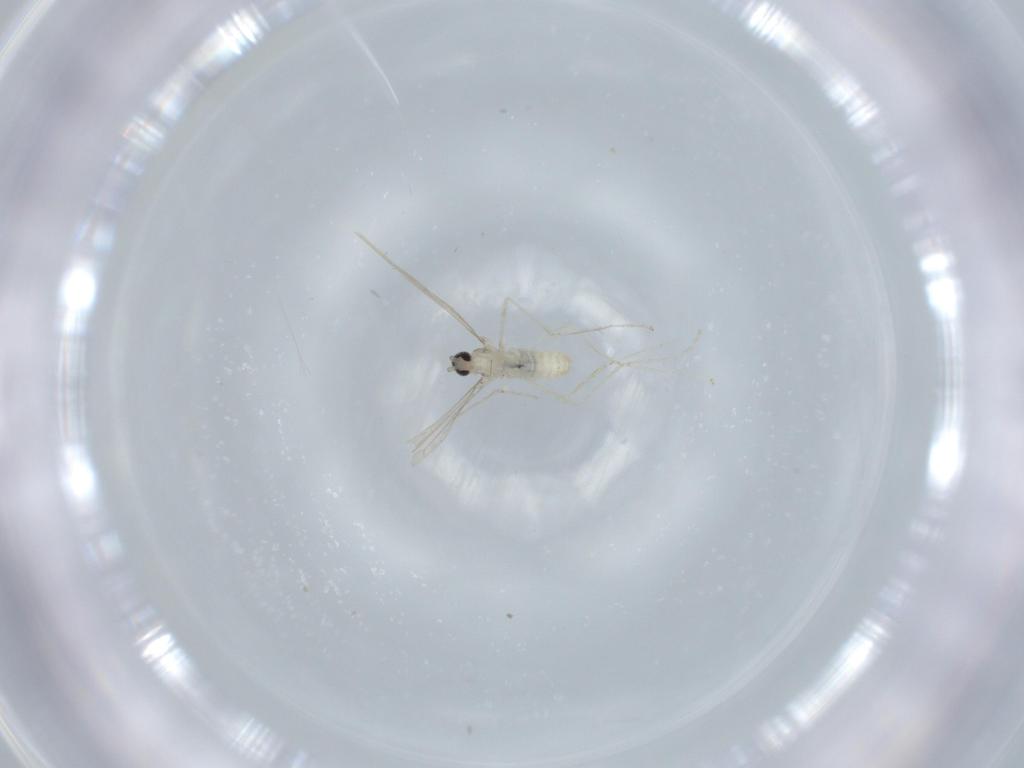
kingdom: Animalia
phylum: Arthropoda
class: Insecta
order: Diptera
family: Cecidomyiidae
